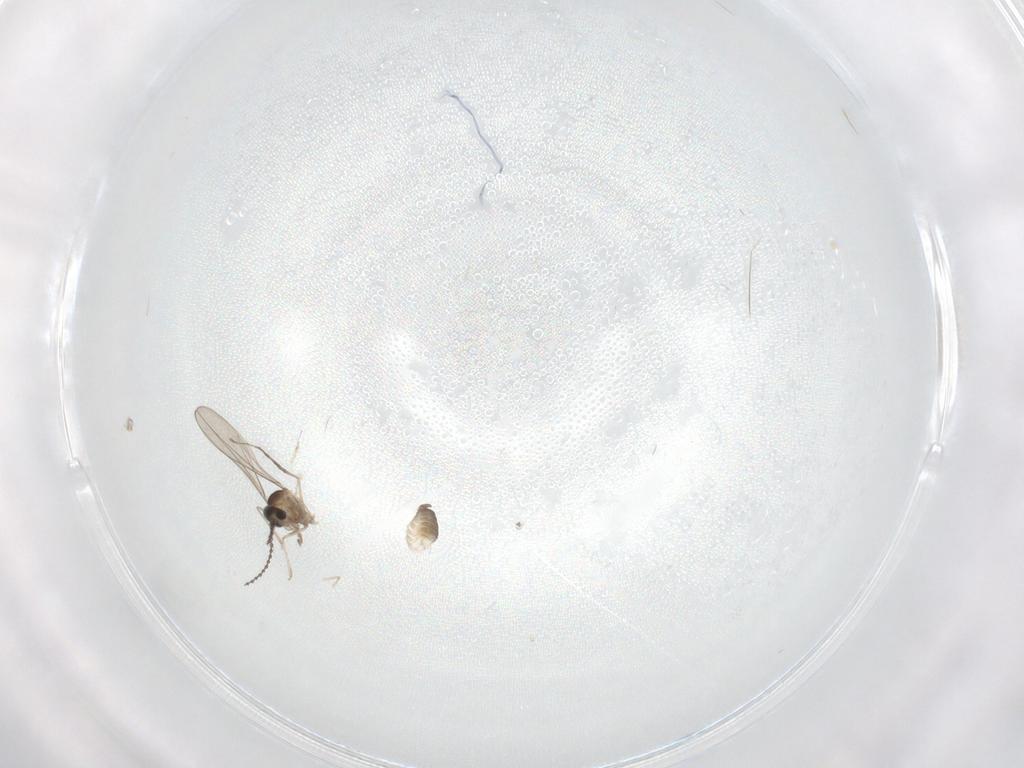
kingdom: Animalia
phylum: Arthropoda
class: Insecta
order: Diptera
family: Cecidomyiidae
